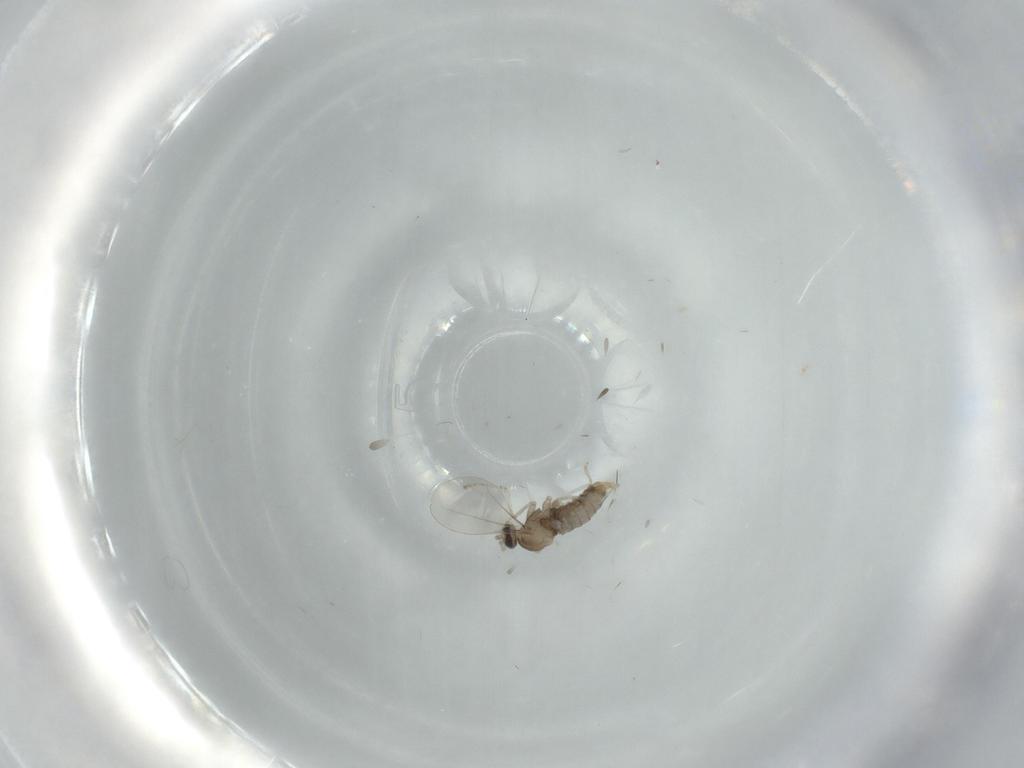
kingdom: Animalia
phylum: Arthropoda
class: Insecta
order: Diptera
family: Cecidomyiidae
